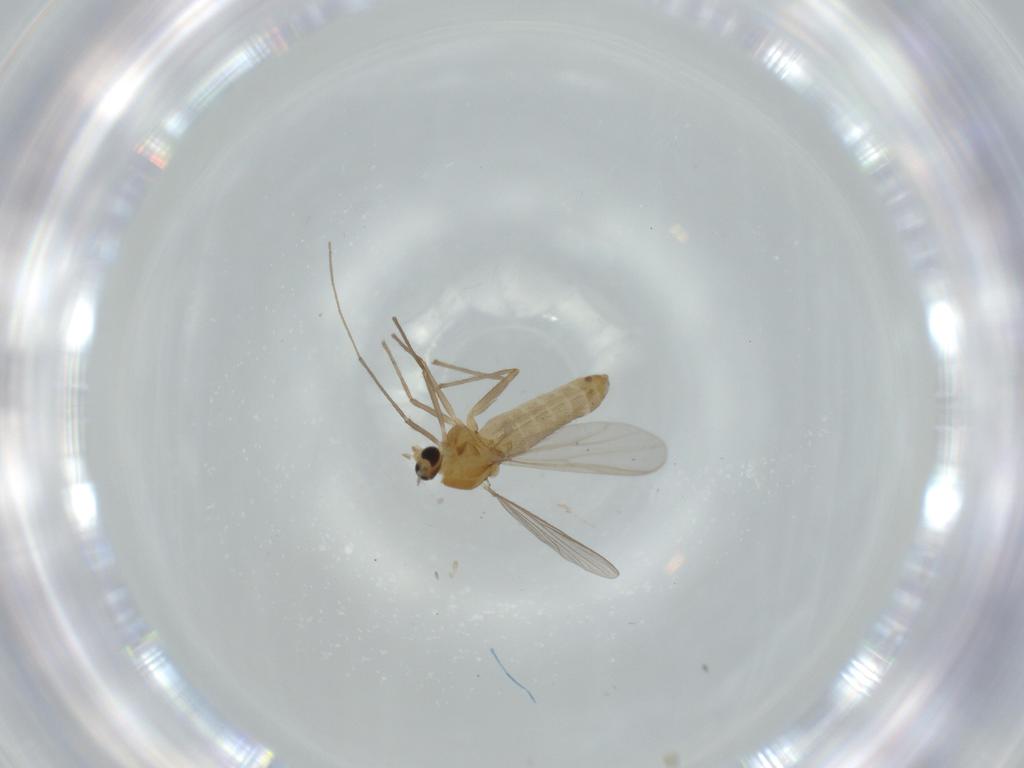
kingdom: Animalia
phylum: Arthropoda
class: Insecta
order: Diptera
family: Chironomidae
